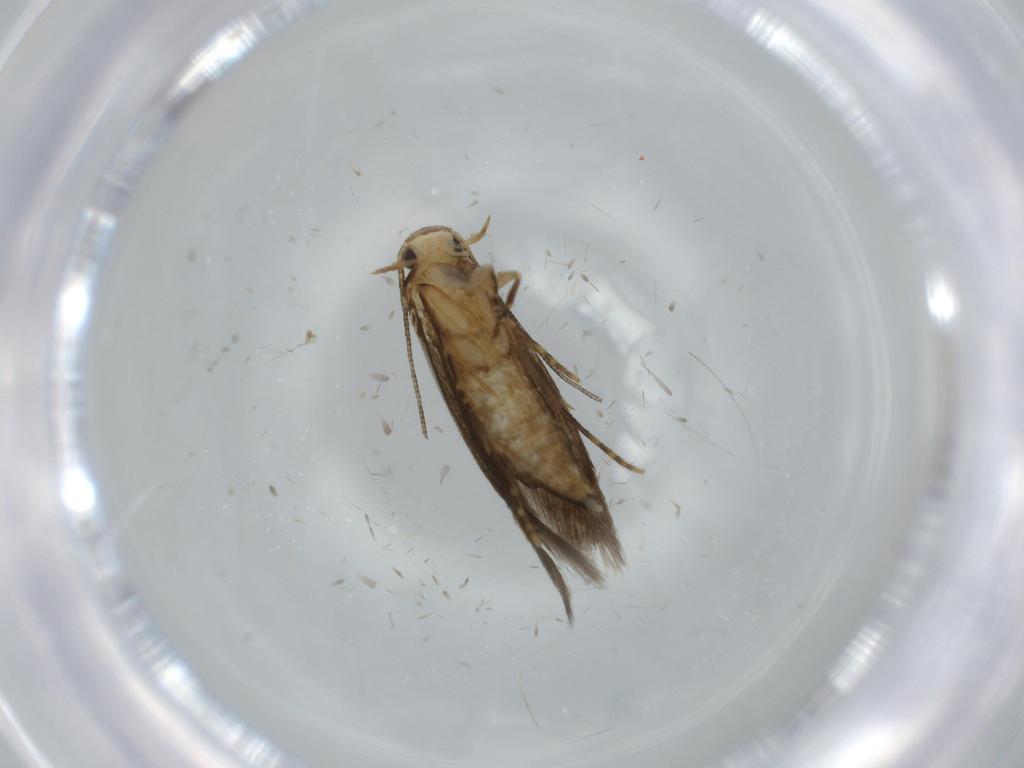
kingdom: Animalia
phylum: Arthropoda
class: Insecta
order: Lepidoptera
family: Tineidae
